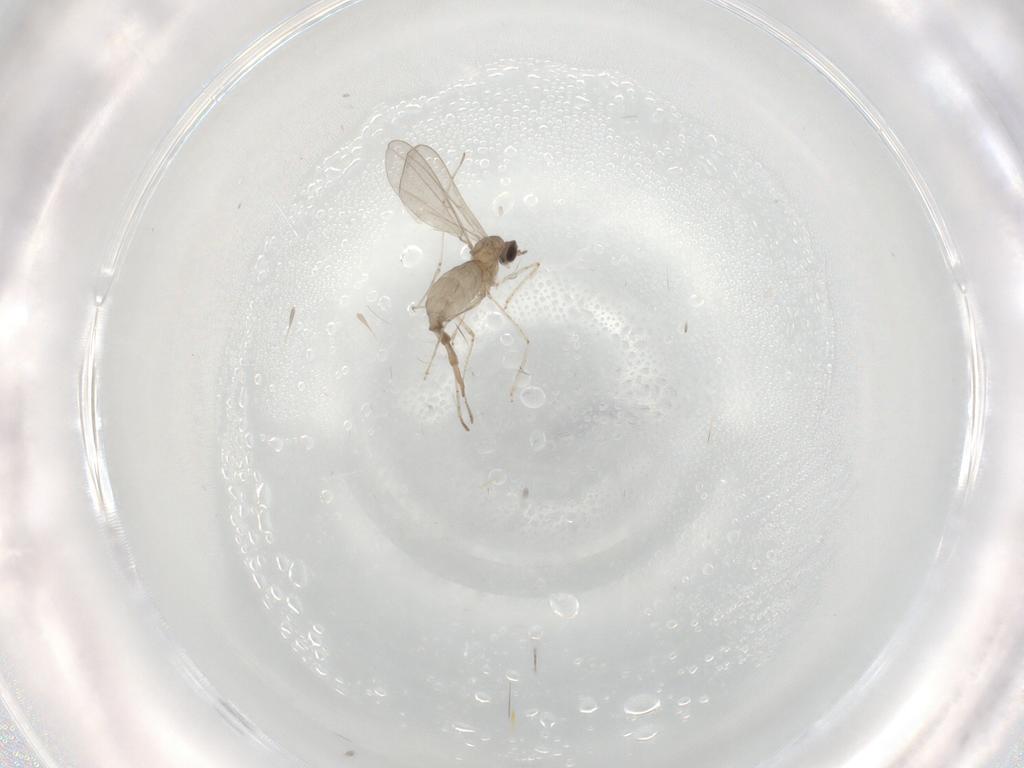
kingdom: Animalia
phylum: Arthropoda
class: Insecta
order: Diptera
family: Cecidomyiidae
